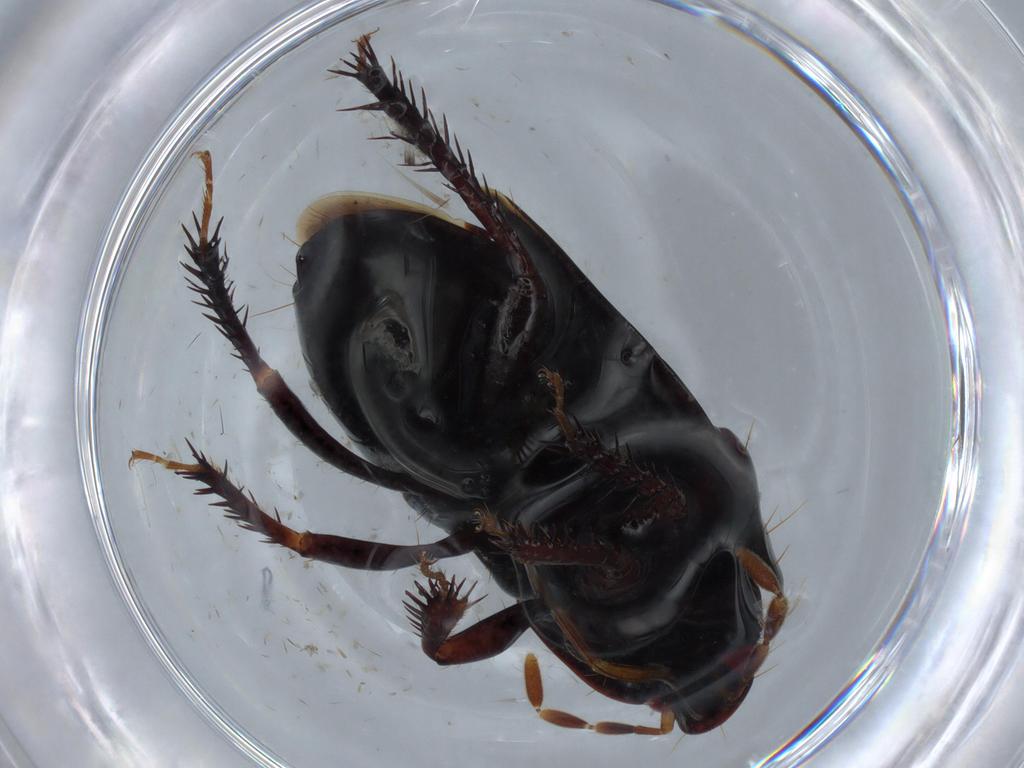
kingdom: Animalia
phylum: Arthropoda
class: Insecta
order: Hemiptera
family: Cydnidae
